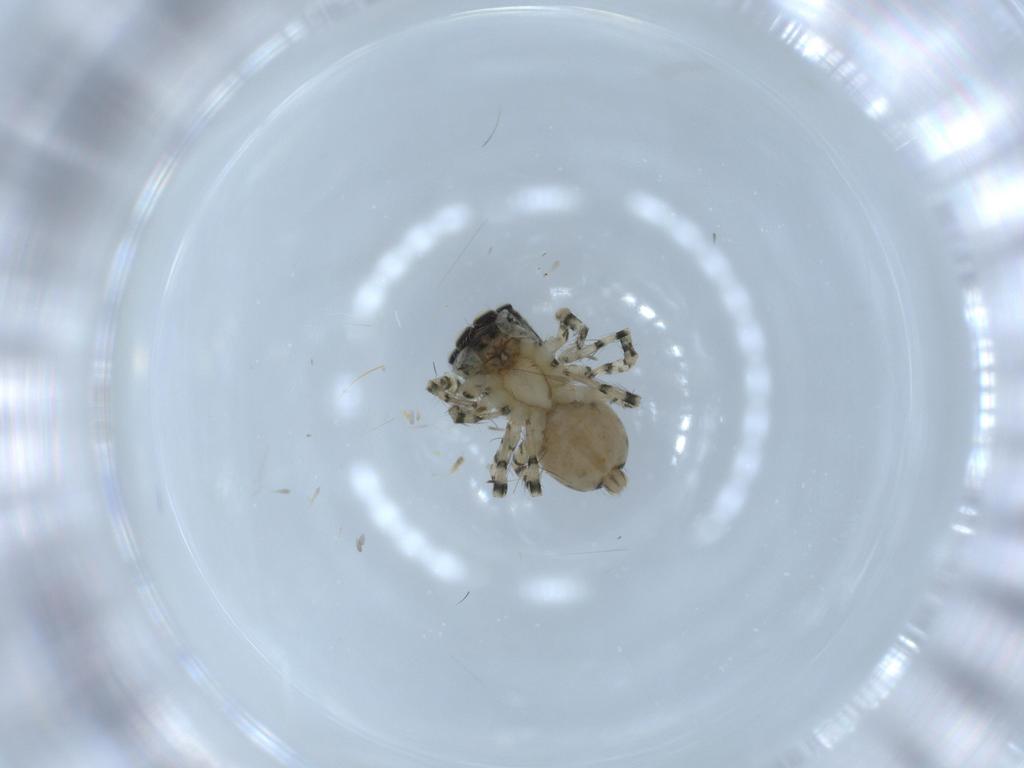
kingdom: Animalia
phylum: Arthropoda
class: Arachnida
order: Araneae
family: Salticidae
